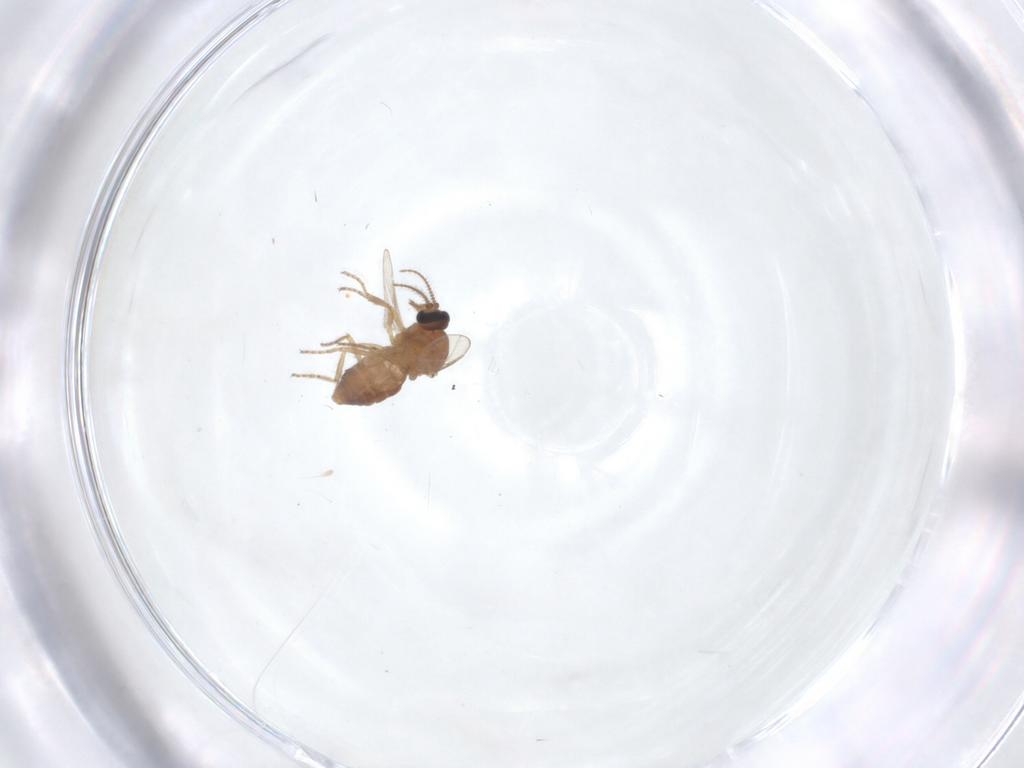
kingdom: Animalia
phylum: Arthropoda
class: Insecta
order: Diptera
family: Ceratopogonidae
